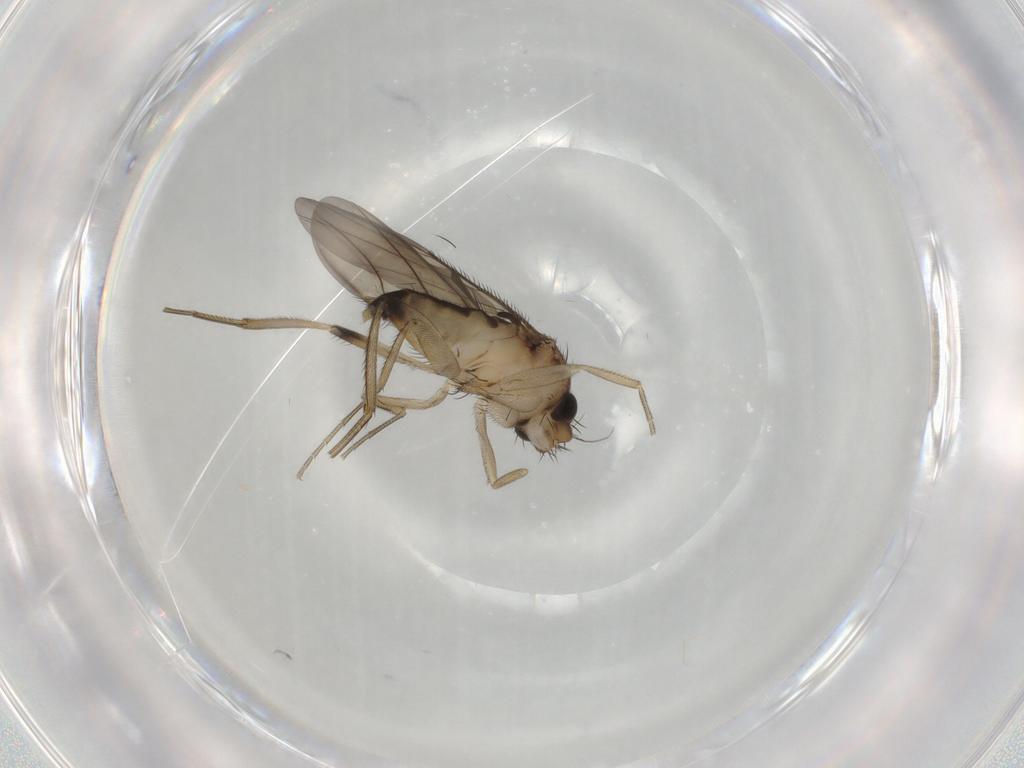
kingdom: Animalia
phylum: Arthropoda
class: Insecta
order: Diptera
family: Phoridae
